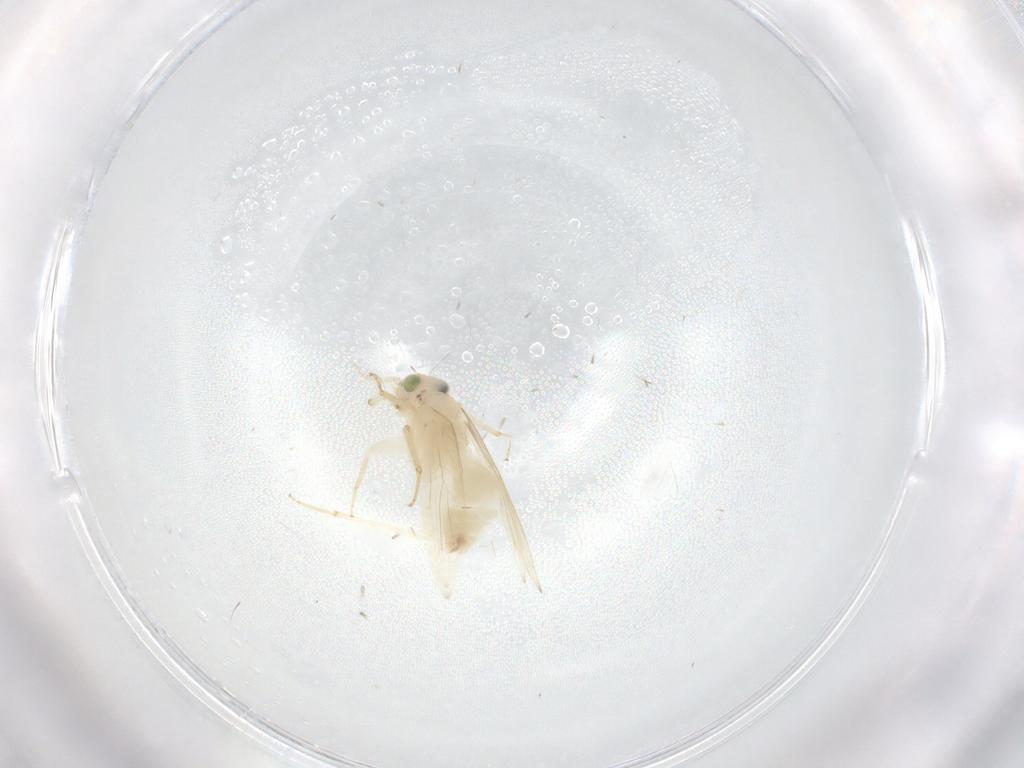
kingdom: Animalia
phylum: Arthropoda
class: Insecta
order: Psocodea
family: Lepidopsocidae
